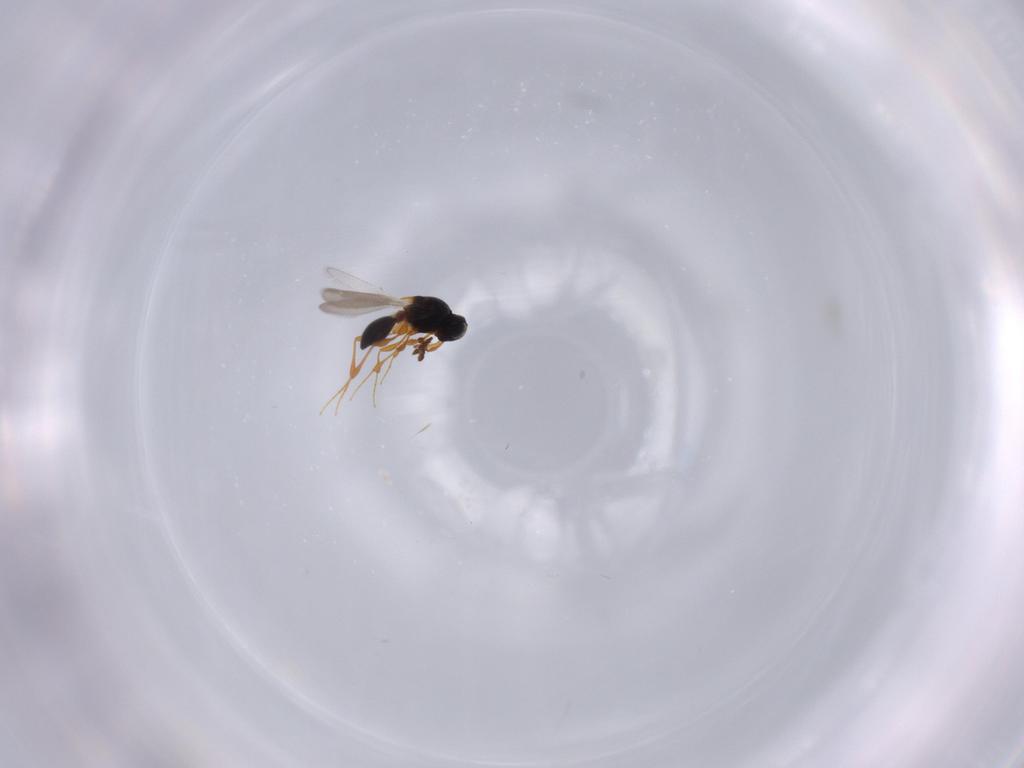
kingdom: Animalia
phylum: Arthropoda
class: Insecta
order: Hymenoptera
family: Platygastridae
